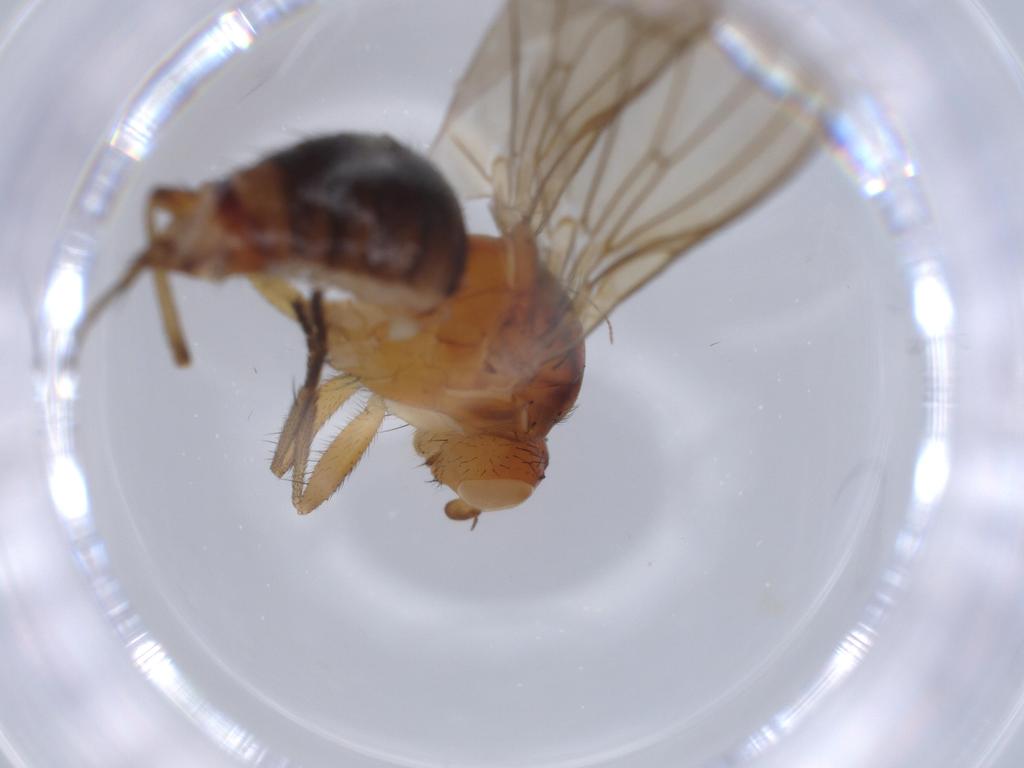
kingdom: Animalia
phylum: Arthropoda
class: Insecta
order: Diptera
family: Heleomyzidae
